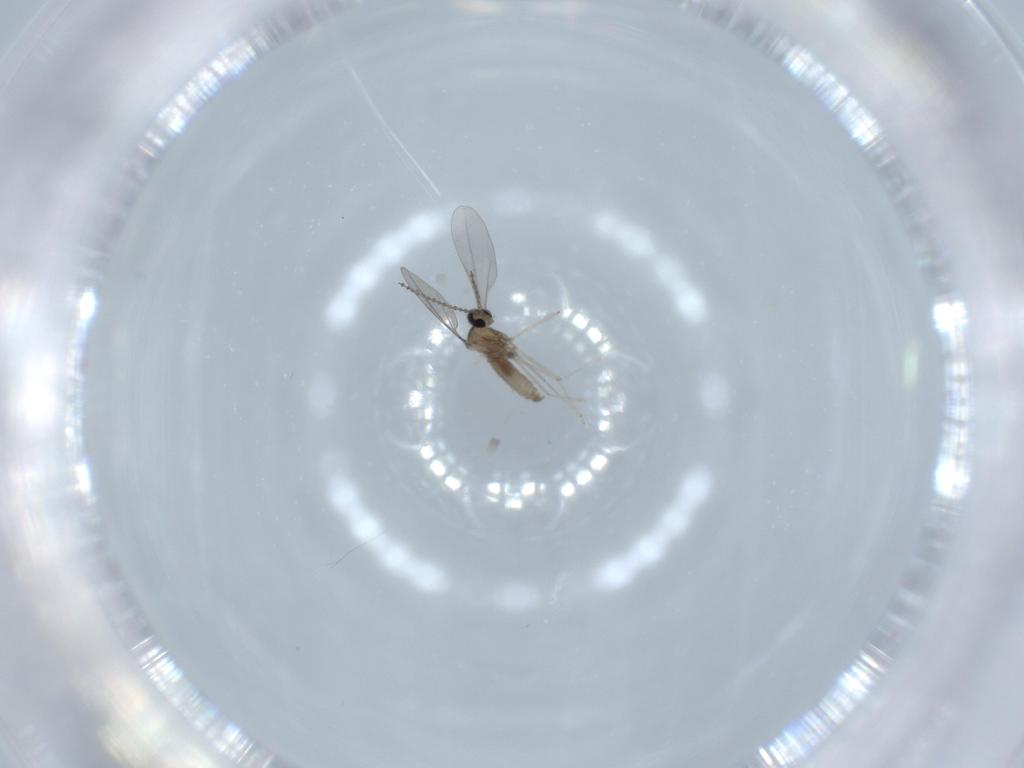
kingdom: Animalia
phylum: Arthropoda
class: Insecta
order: Diptera
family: Cecidomyiidae
